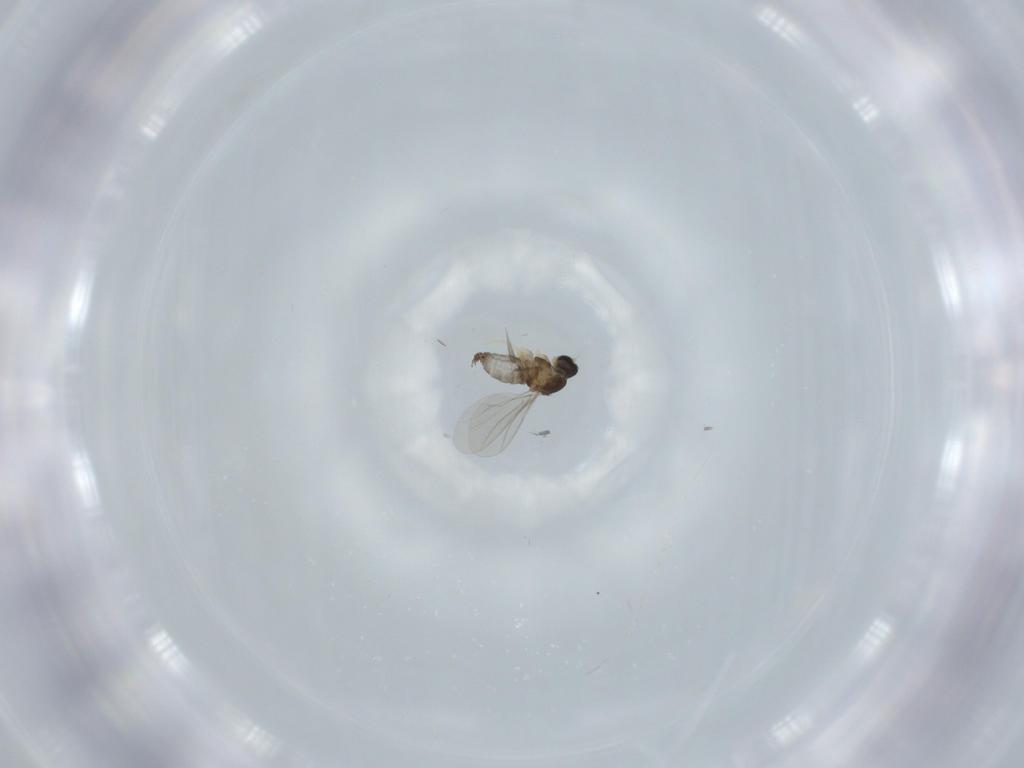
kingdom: Animalia
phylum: Arthropoda
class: Insecta
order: Diptera
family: Cecidomyiidae
